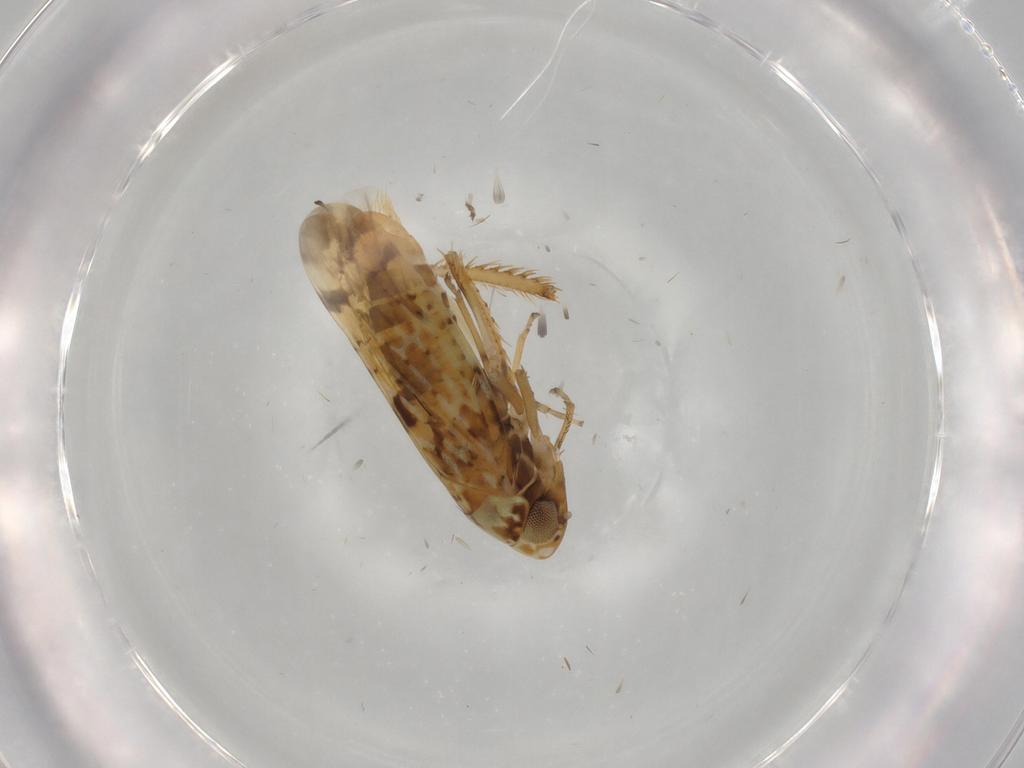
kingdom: Animalia
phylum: Arthropoda
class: Insecta
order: Hemiptera
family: Cicadellidae
